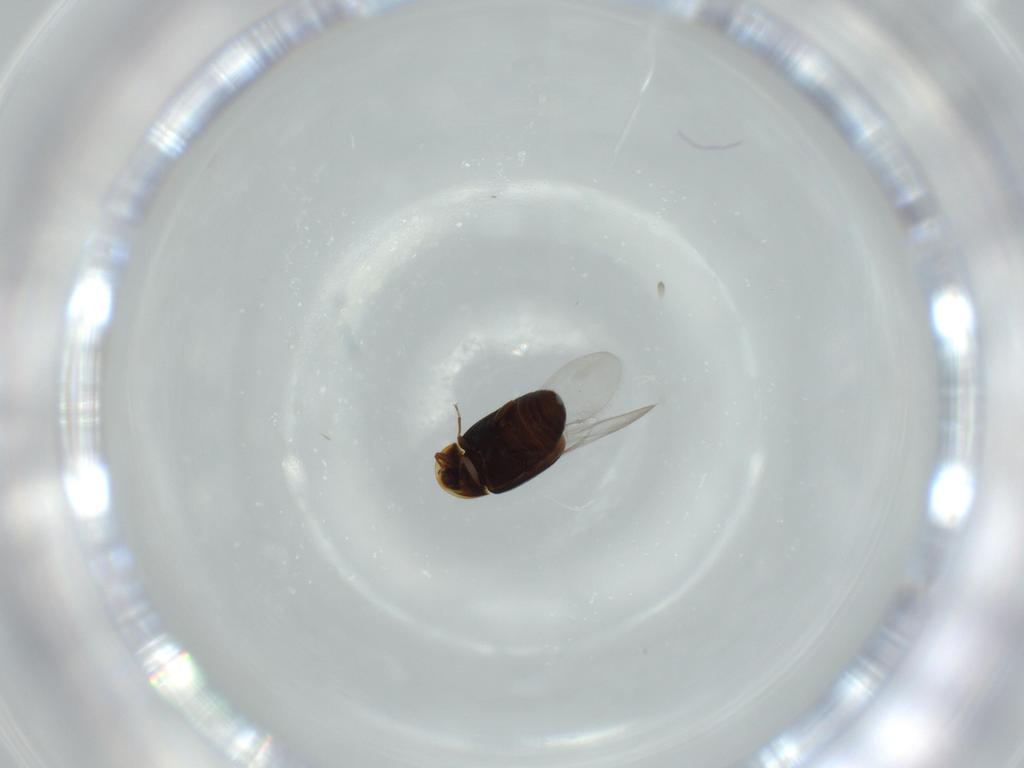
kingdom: Animalia
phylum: Arthropoda
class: Insecta
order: Coleoptera
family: Corylophidae
